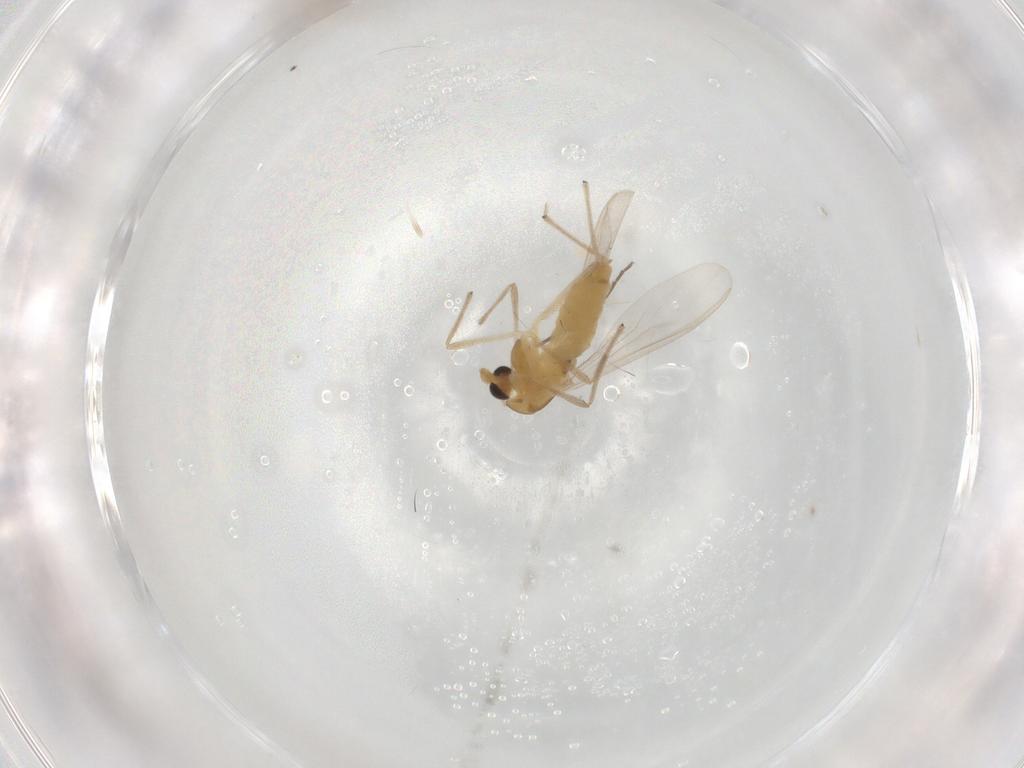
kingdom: Animalia
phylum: Arthropoda
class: Insecta
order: Diptera
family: Chironomidae
